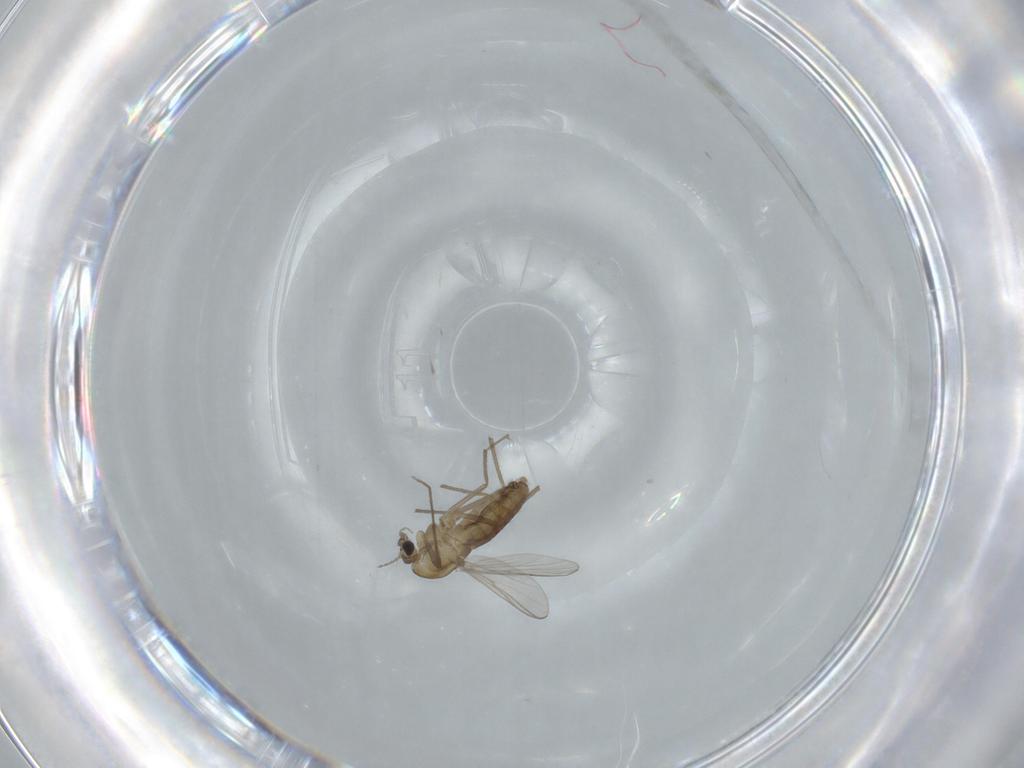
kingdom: Animalia
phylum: Arthropoda
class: Insecta
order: Diptera
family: Chironomidae
